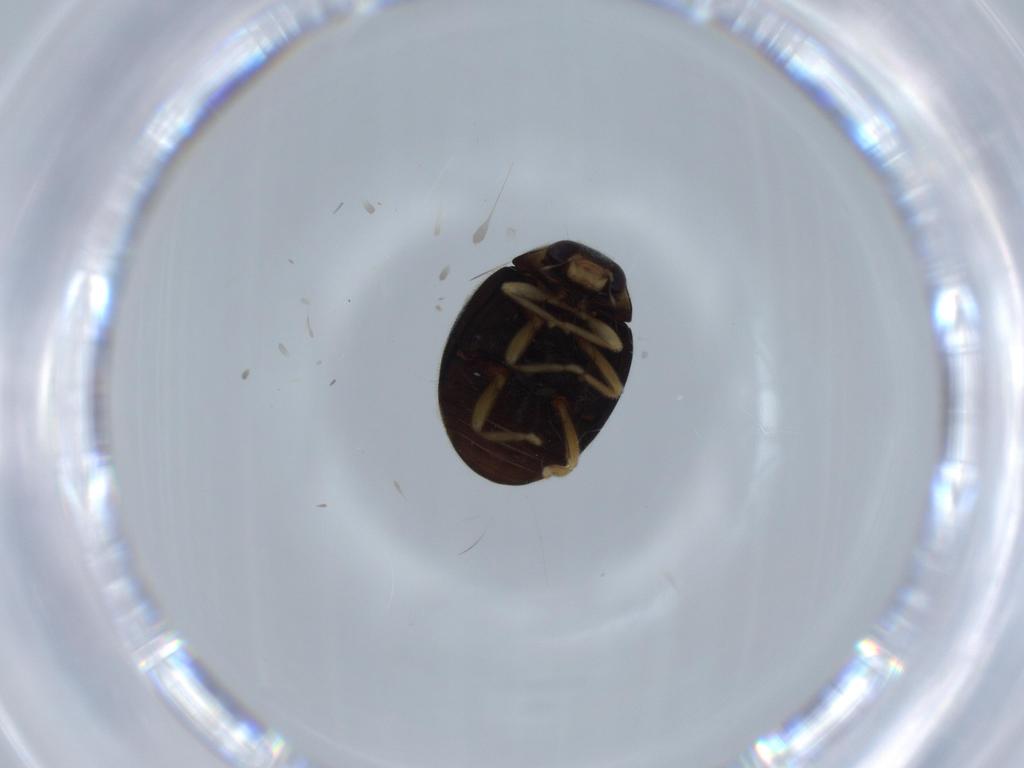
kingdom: Animalia
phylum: Arthropoda
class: Insecta
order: Coleoptera
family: Coccinellidae
